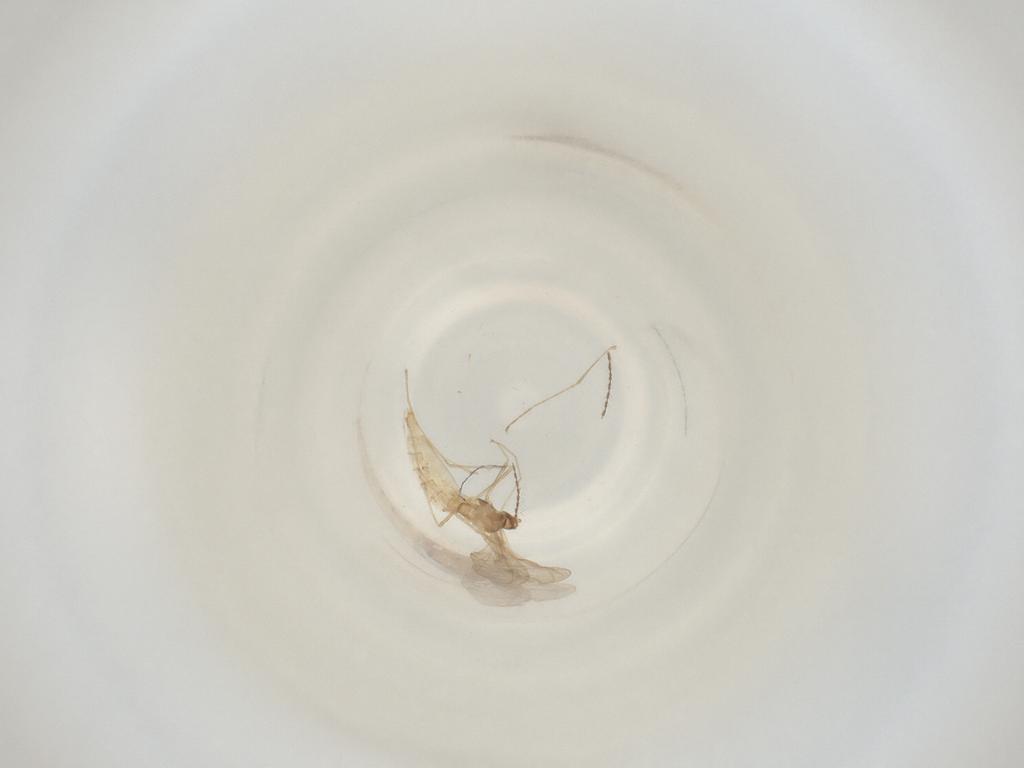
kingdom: Animalia
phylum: Arthropoda
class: Insecta
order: Diptera
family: Cecidomyiidae
